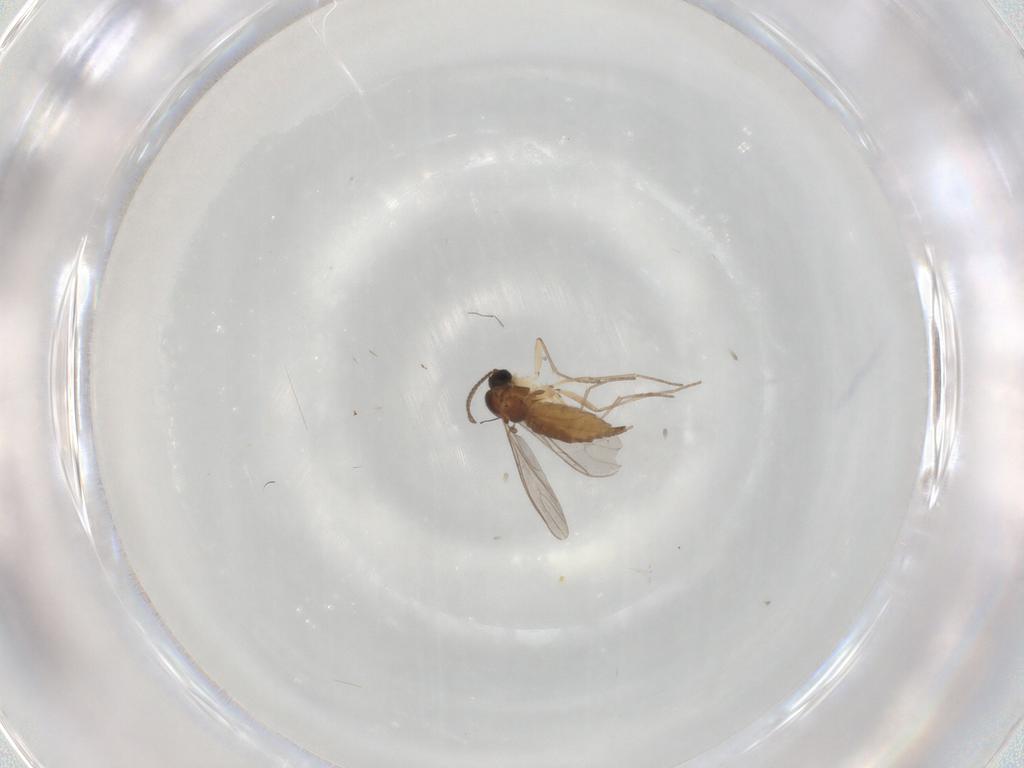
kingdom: Animalia
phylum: Arthropoda
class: Insecta
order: Diptera
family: Sciaridae
